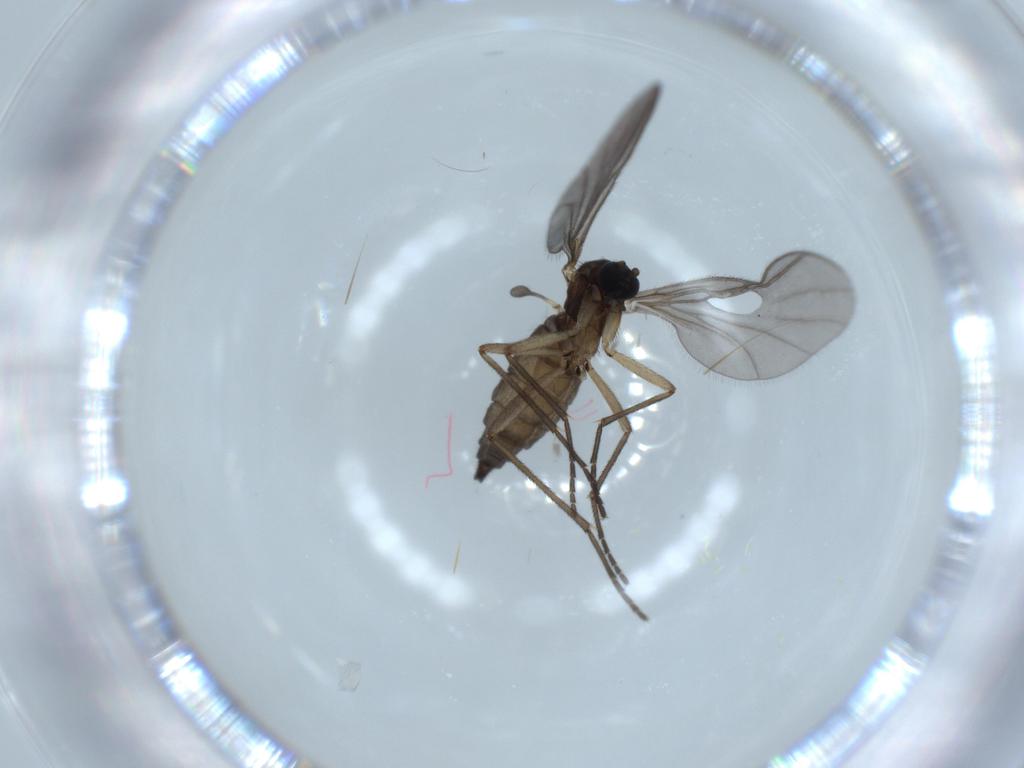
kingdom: Animalia
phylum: Arthropoda
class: Insecta
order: Diptera
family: Sciaridae
